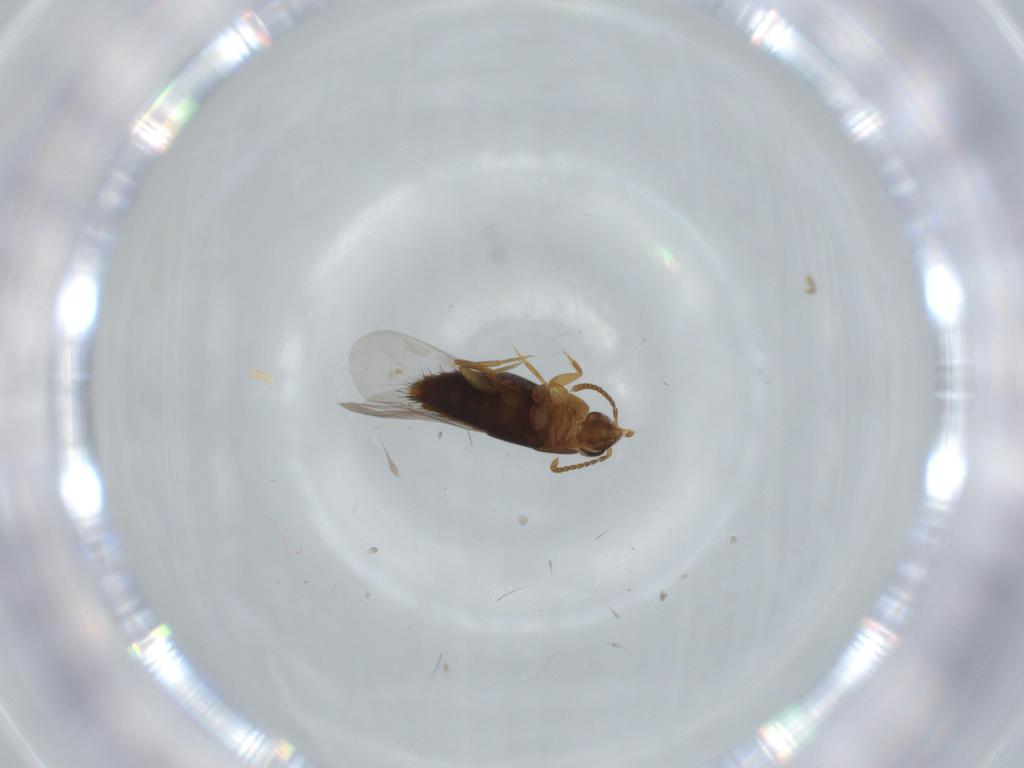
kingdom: Animalia
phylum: Arthropoda
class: Insecta
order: Coleoptera
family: Staphylinidae
